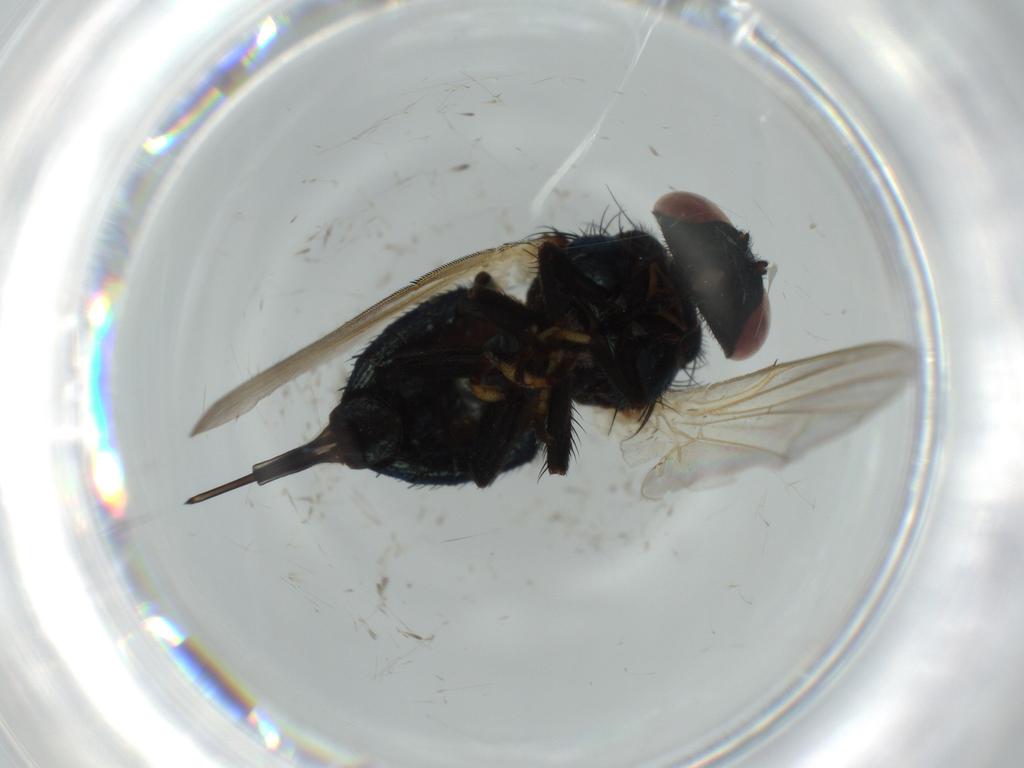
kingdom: Animalia
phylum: Arthropoda
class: Insecta
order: Diptera
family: Lonchaeidae
